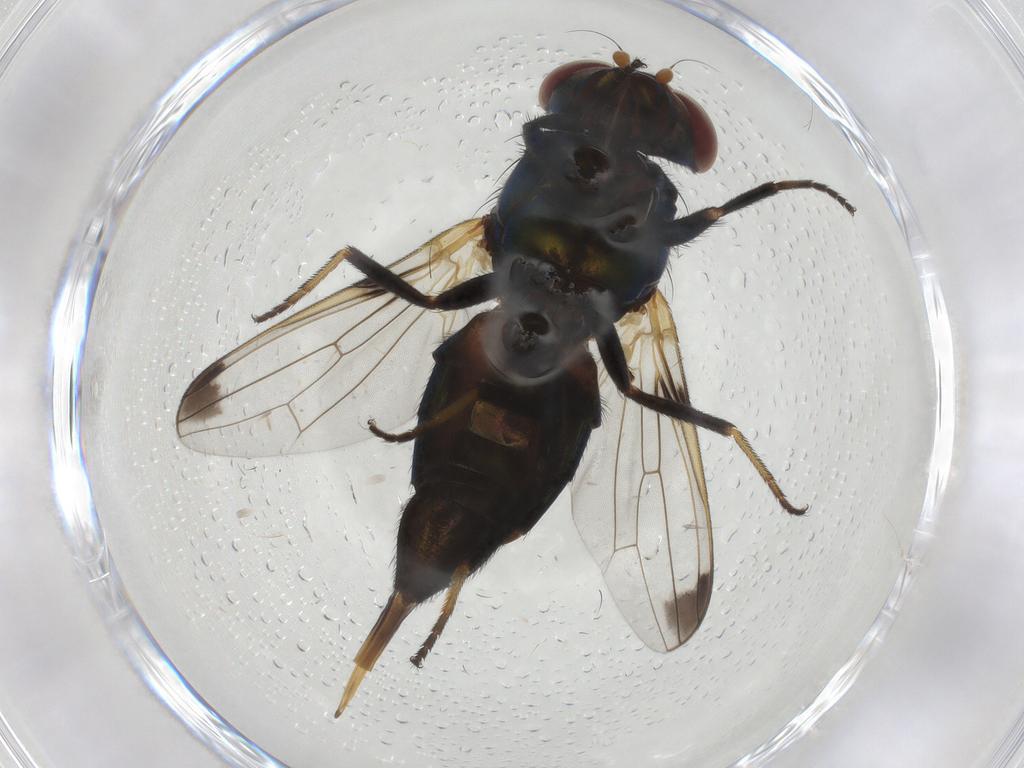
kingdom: Animalia
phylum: Arthropoda
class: Insecta
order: Diptera
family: Ulidiidae
